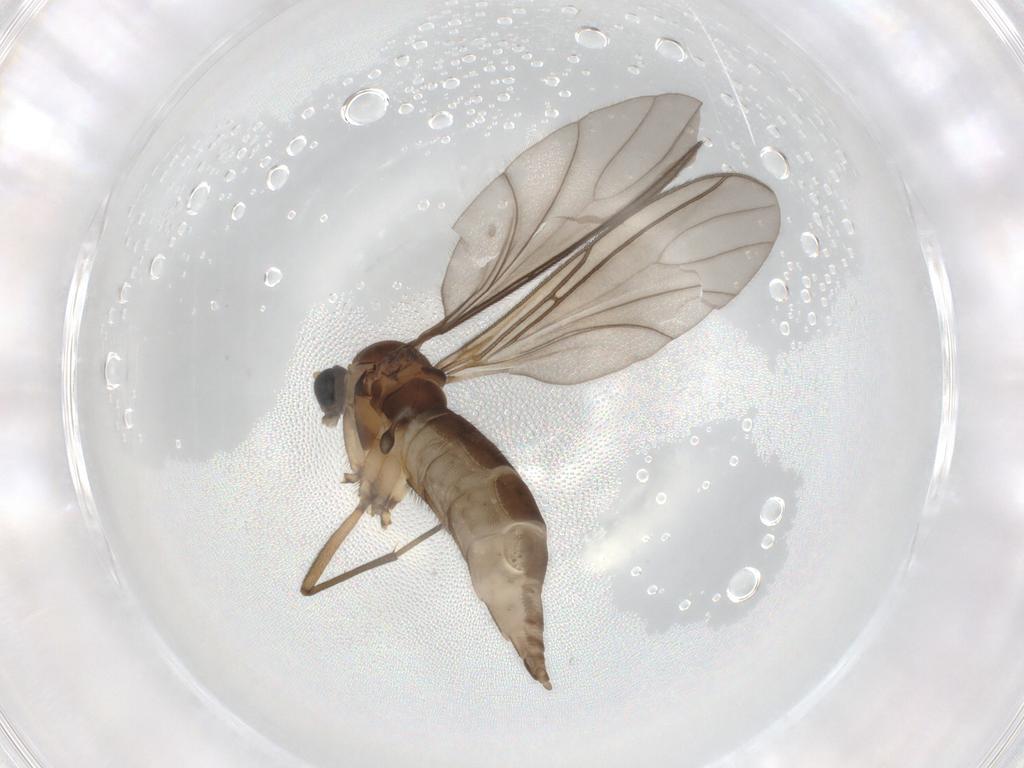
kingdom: Animalia
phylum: Arthropoda
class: Insecta
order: Diptera
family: Sciaridae
